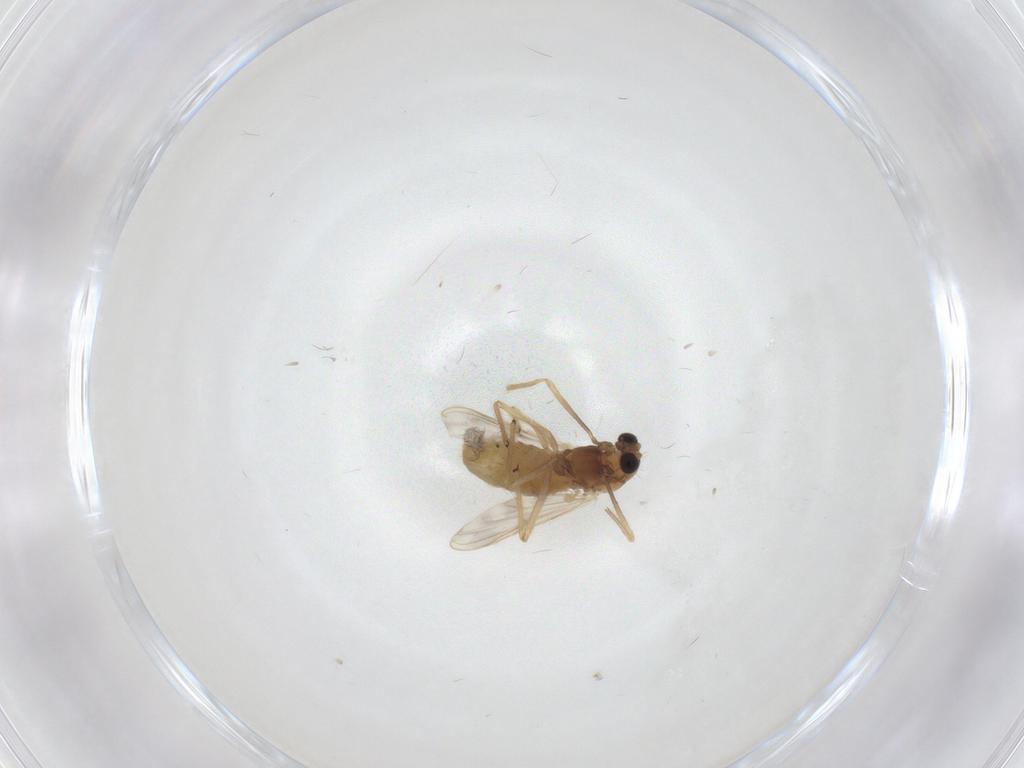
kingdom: Animalia
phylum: Arthropoda
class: Insecta
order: Diptera
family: Chironomidae
